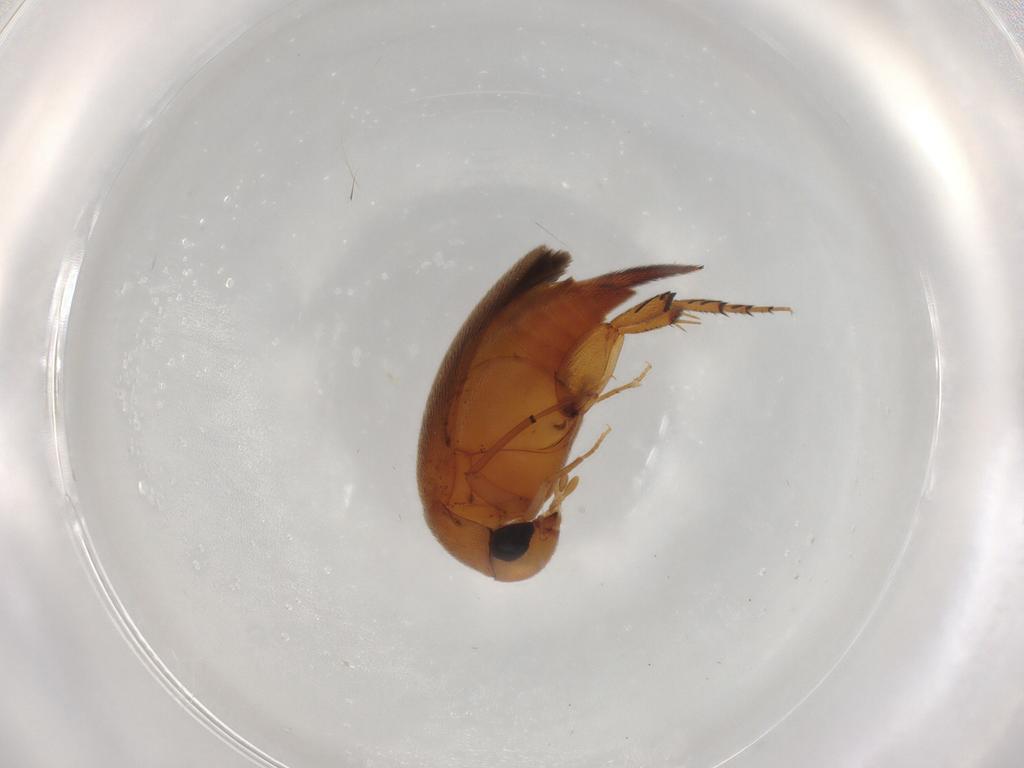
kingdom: Animalia
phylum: Arthropoda
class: Insecta
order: Coleoptera
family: Mordellidae
